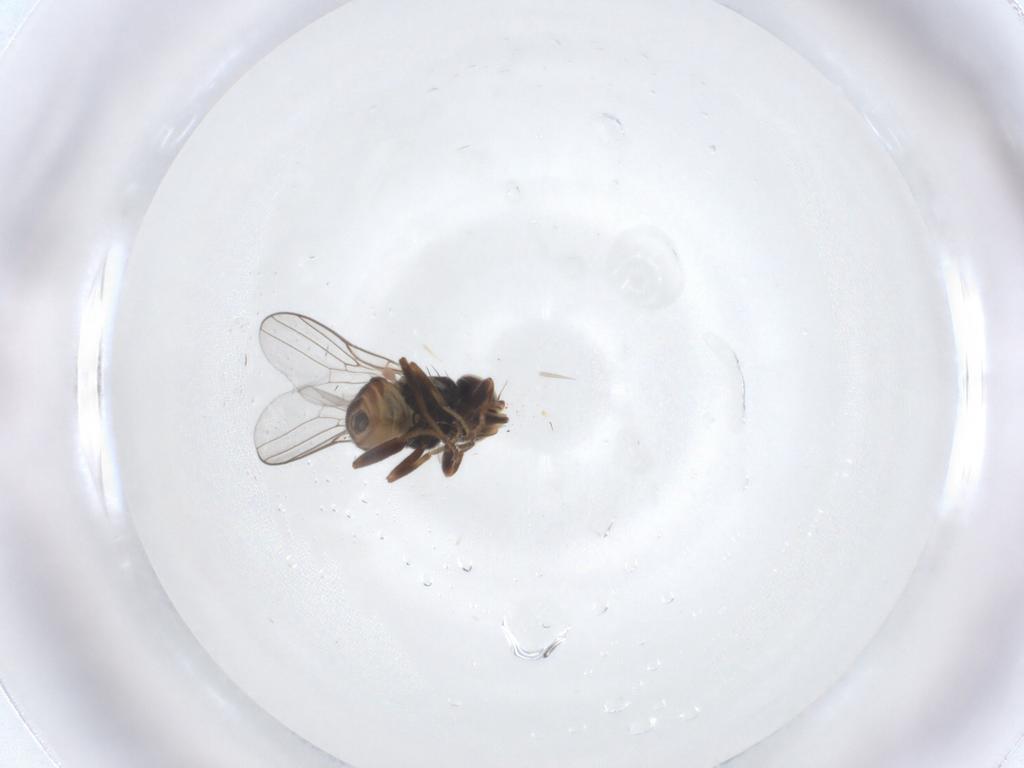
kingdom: Animalia
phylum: Arthropoda
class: Insecta
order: Diptera
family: Chloropidae
